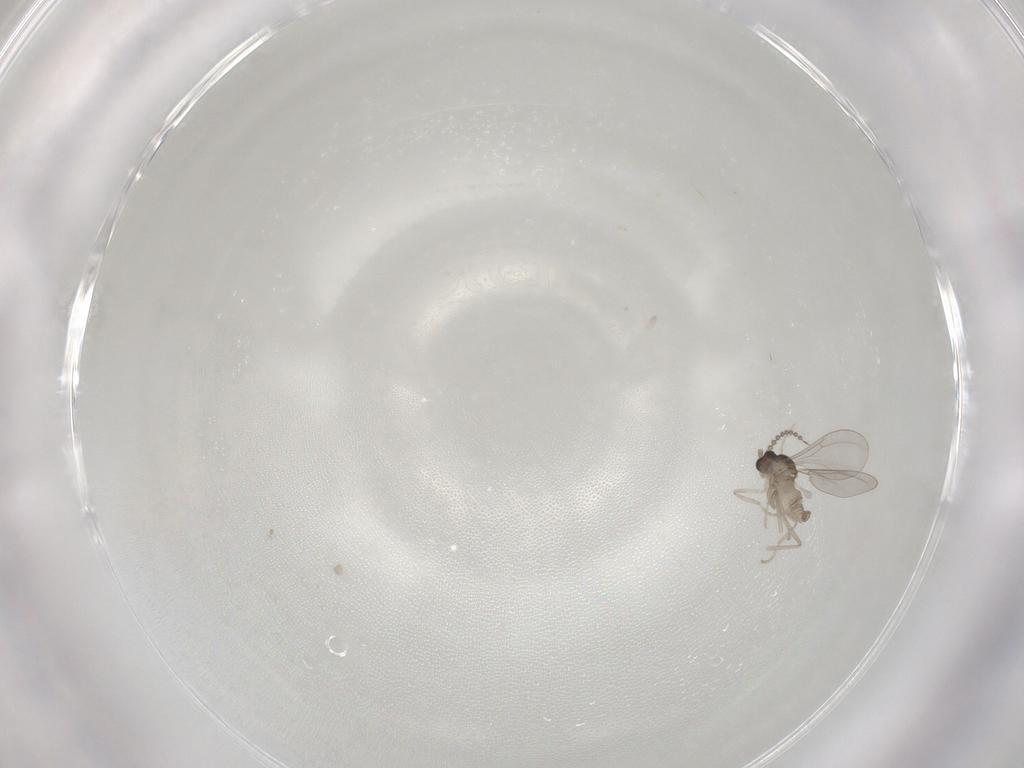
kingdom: Animalia
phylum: Arthropoda
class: Insecta
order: Diptera
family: Cecidomyiidae
